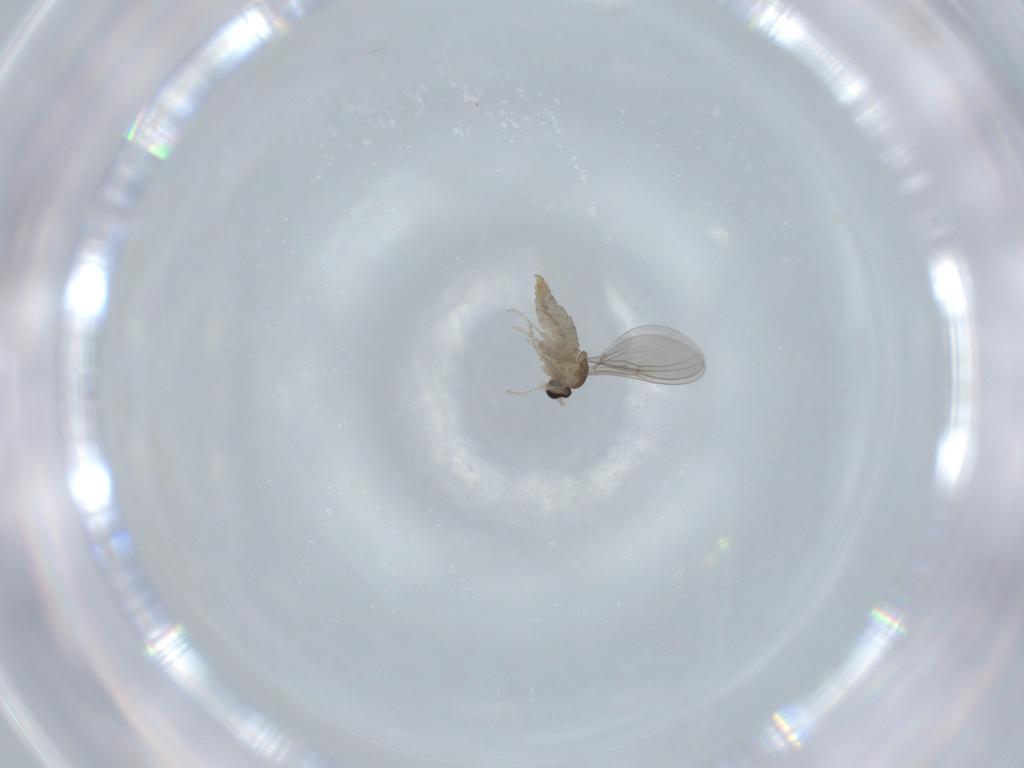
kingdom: Animalia
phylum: Arthropoda
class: Insecta
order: Diptera
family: Cecidomyiidae
